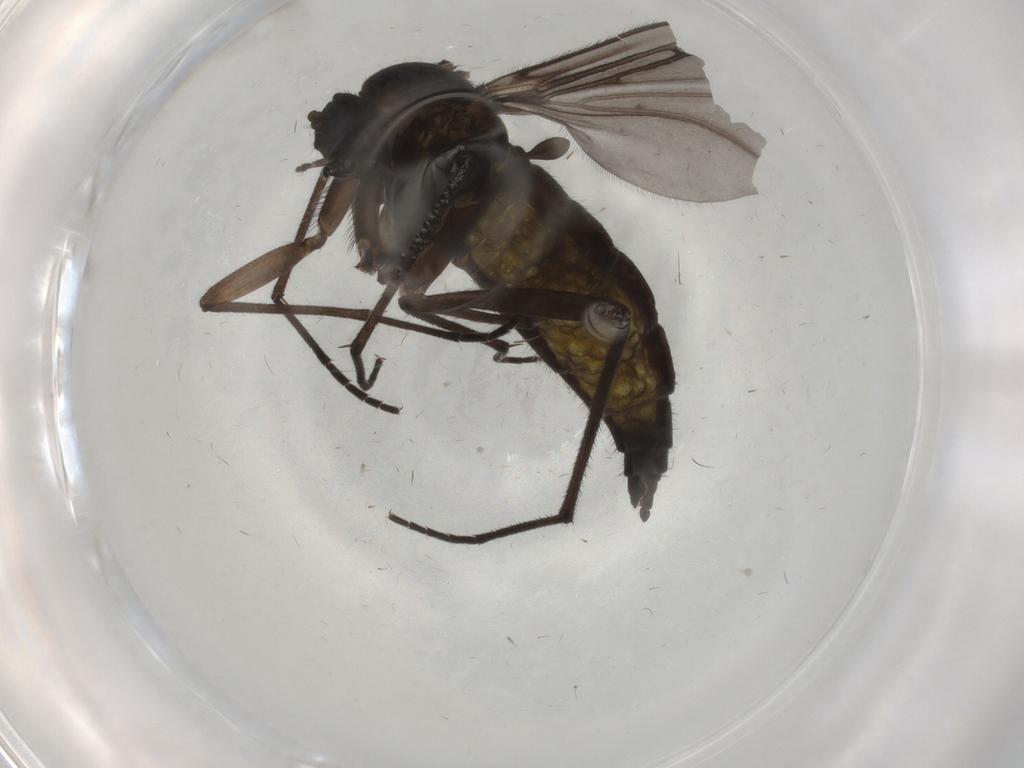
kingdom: Animalia
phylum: Arthropoda
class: Insecta
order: Diptera
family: Sciaridae
